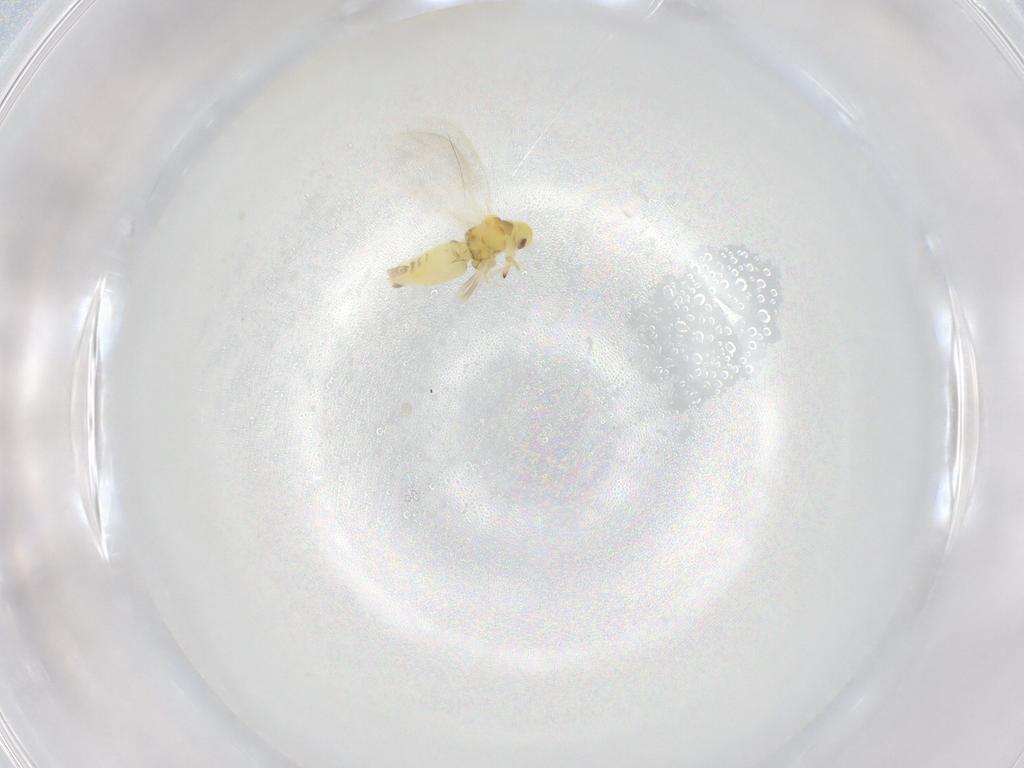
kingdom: Animalia
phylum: Arthropoda
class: Insecta
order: Hemiptera
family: Aleyrodidae
